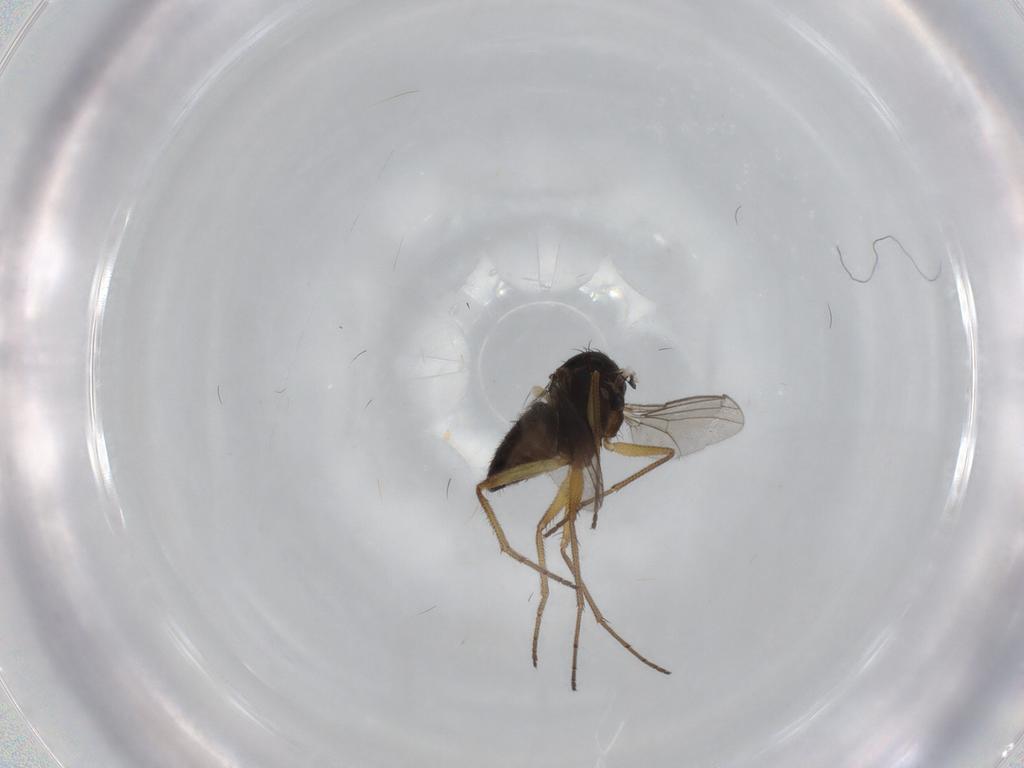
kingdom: Animalia
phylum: Arthropoda
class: Insecta
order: Diptera
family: Dolichopodidae
